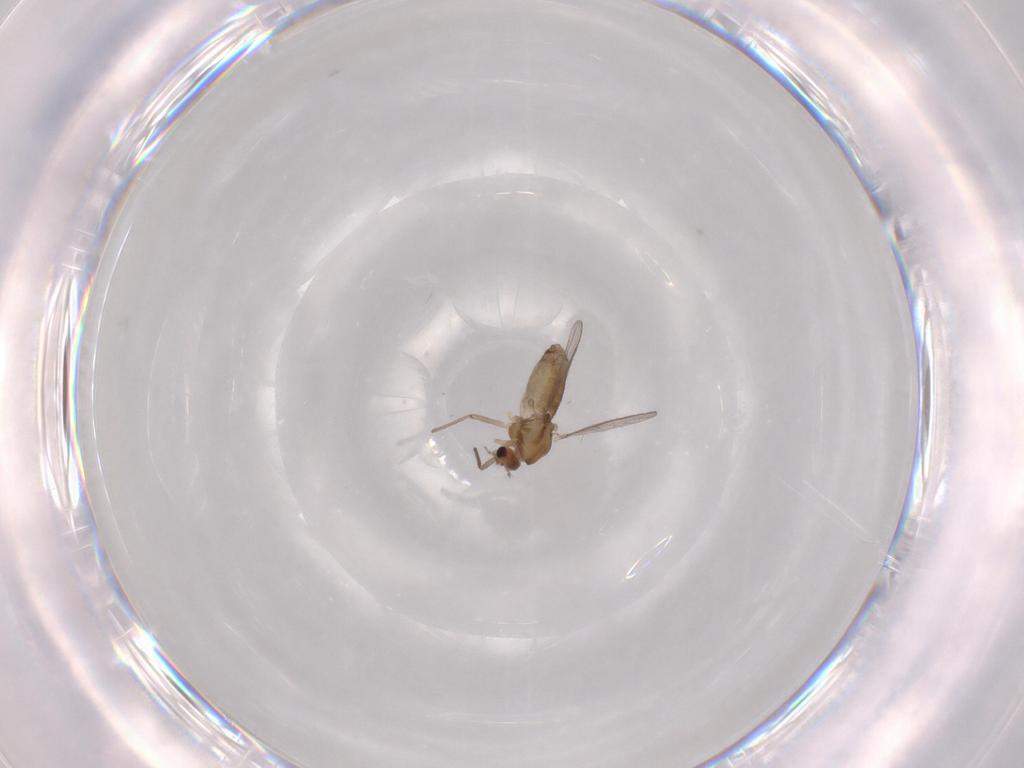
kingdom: Animalia
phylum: Arthropoda
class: Insecta
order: Diptera
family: Chironomidae
